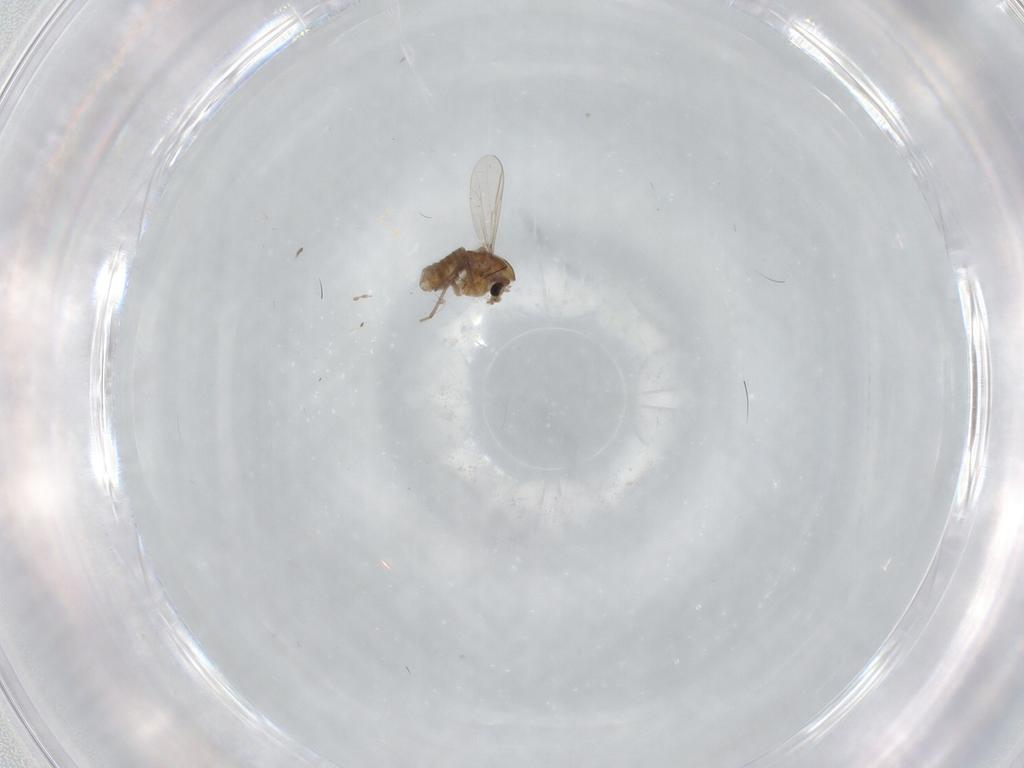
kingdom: Animalia
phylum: Arthropoda
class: Insecta
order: Diptera
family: Chironomidae
